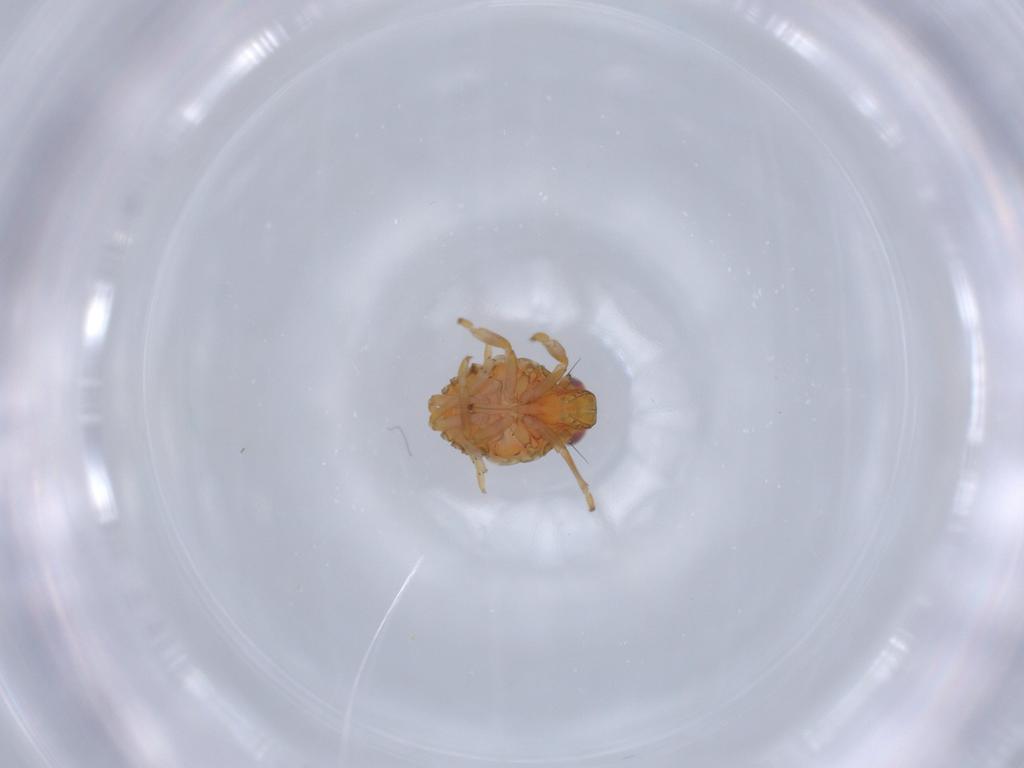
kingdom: Animalia
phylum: Arthropoda
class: Insecta
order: Hemiptera
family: Issidae
